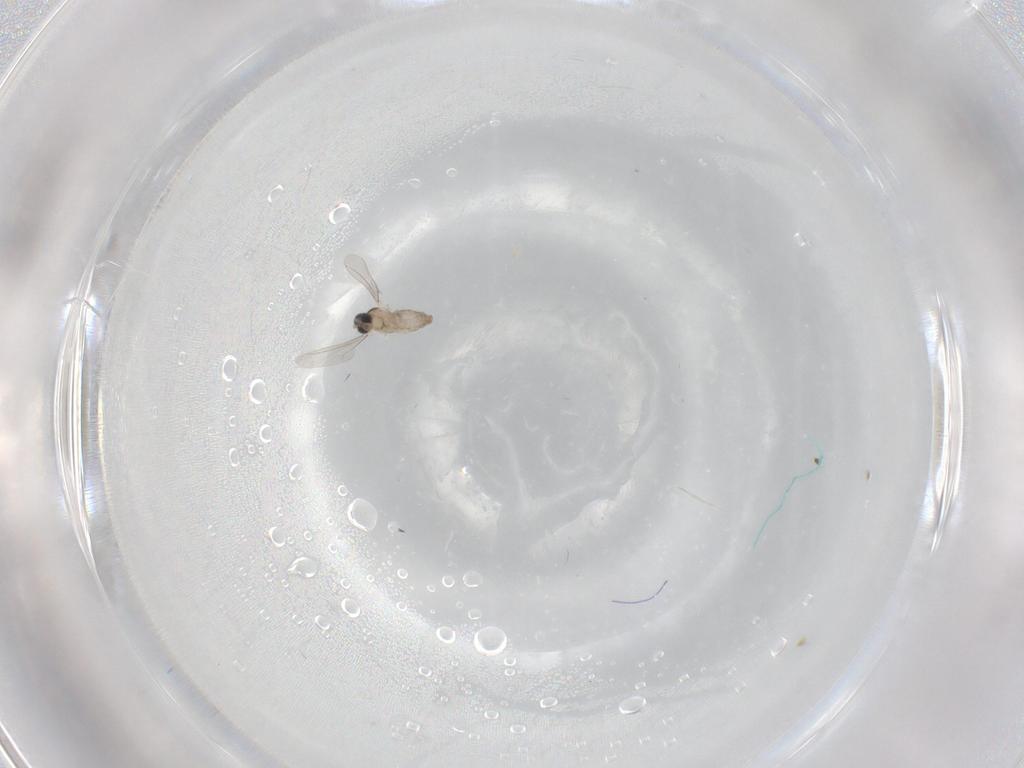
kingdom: Animalia
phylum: Arthropoda
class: Insecta
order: Diptera
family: Cecidomyiidae
